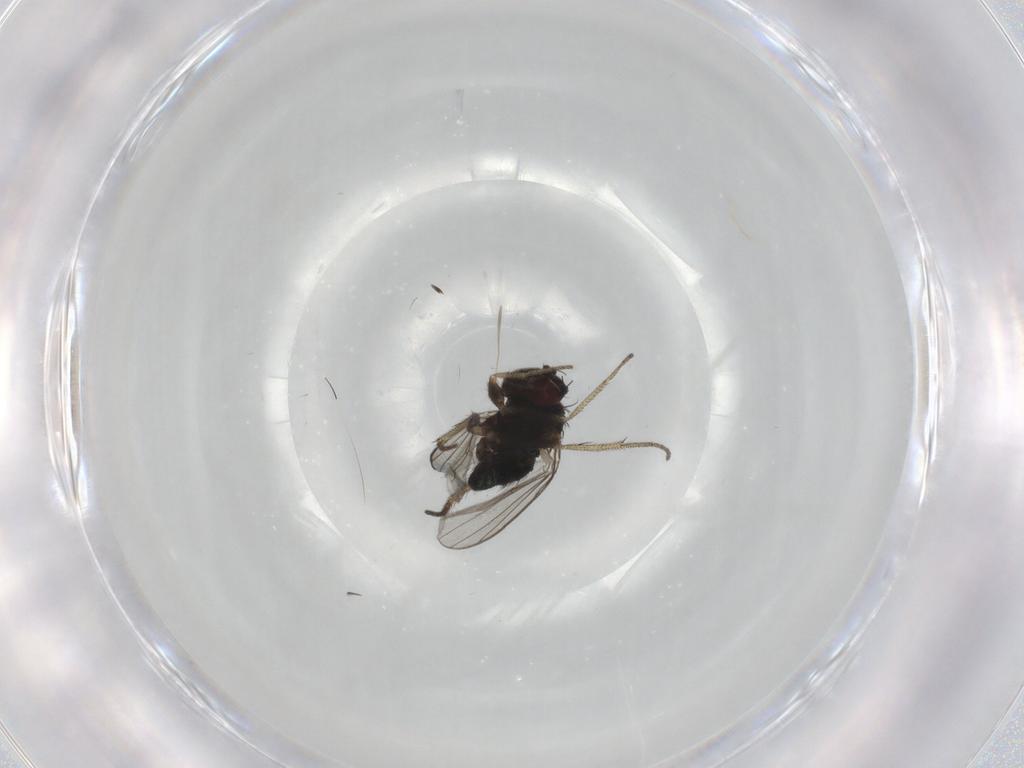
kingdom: Animalia
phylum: Arthropoda
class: Insecta
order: Diptera
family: Dolichopodidae
